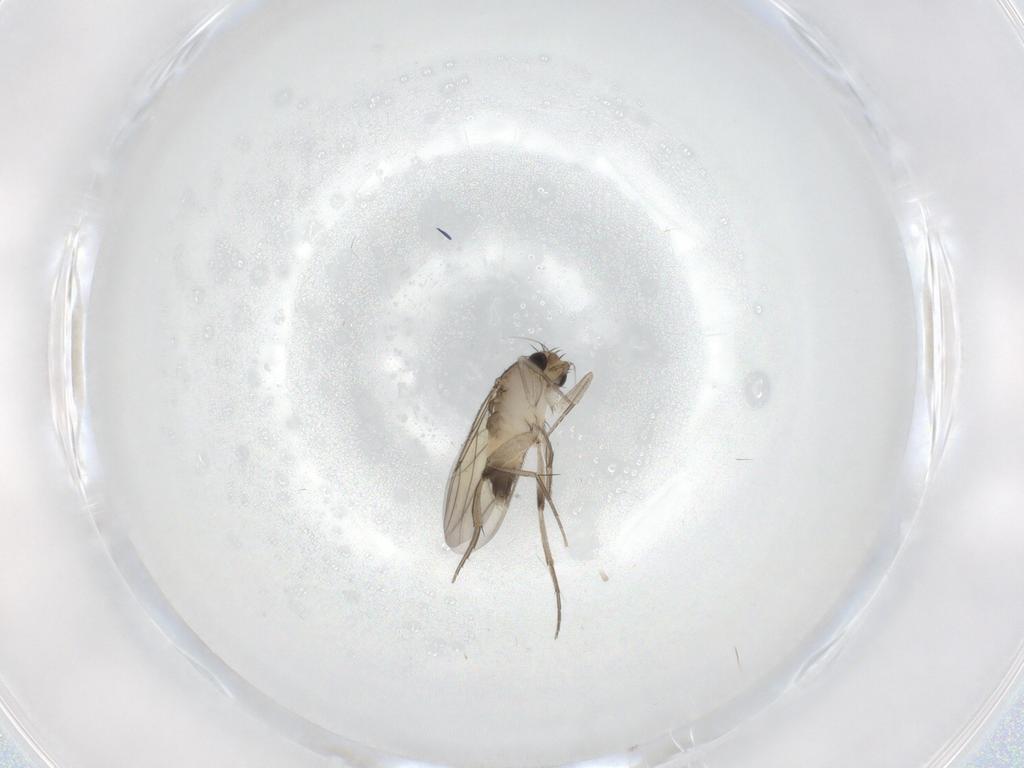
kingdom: Animalia
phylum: Arthropoda
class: Insecta
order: Diptera
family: Phoridae
